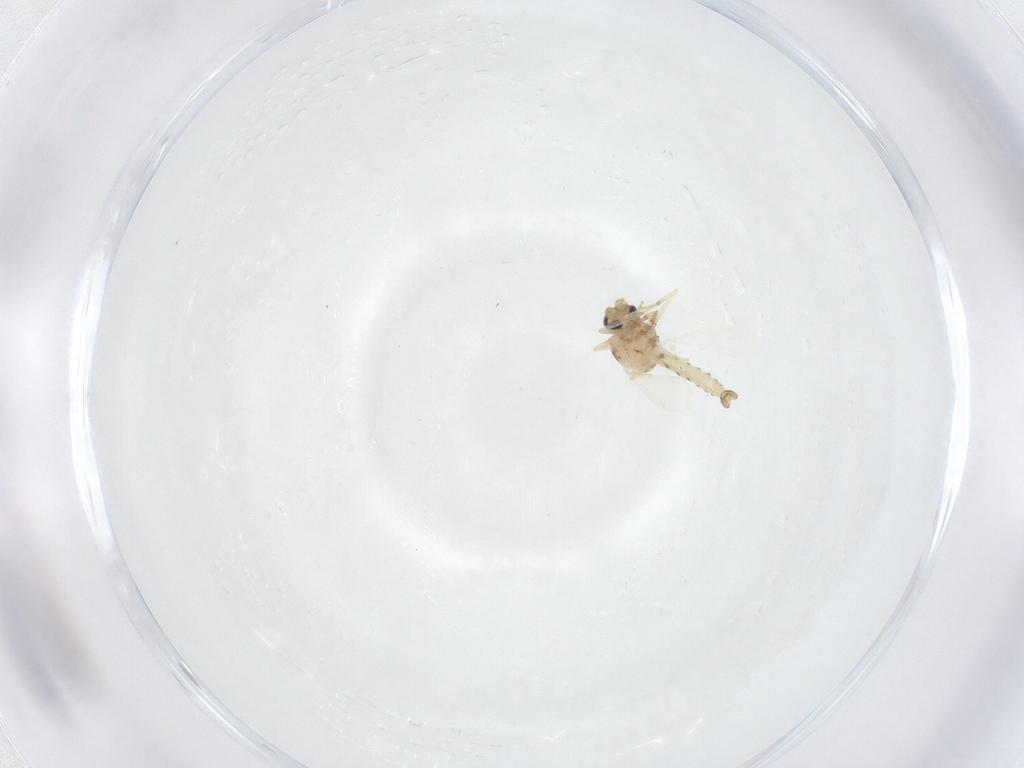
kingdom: Animalia
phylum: Arthropoda
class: Insecta
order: Diptera
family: Ceratopogonidae
